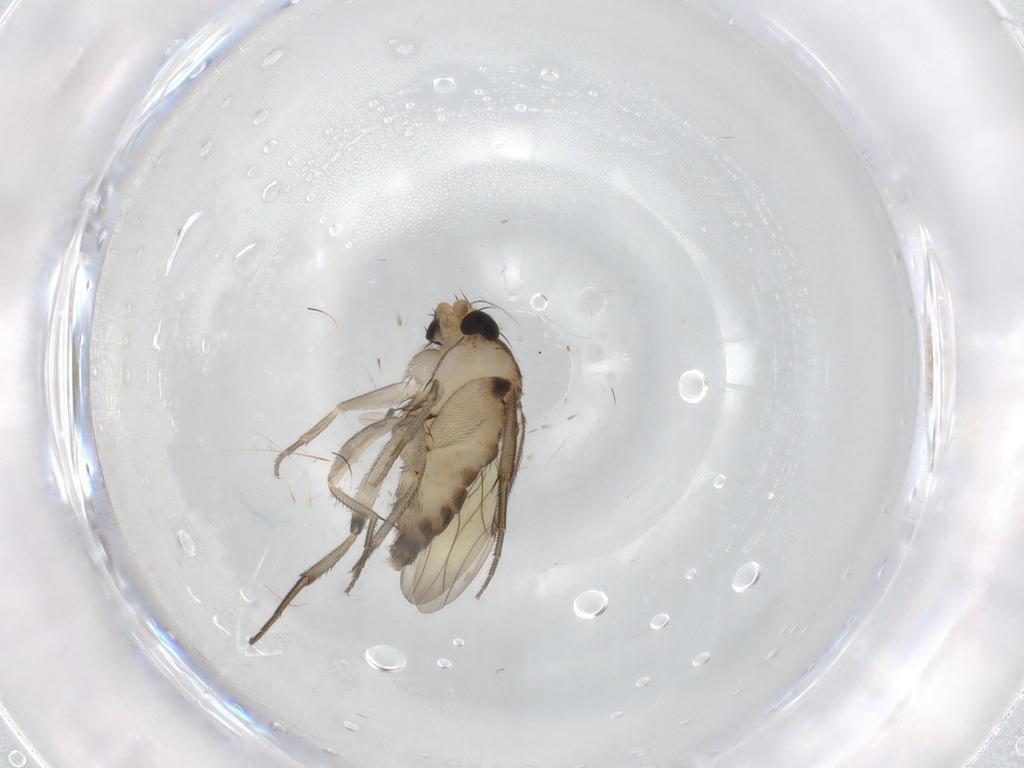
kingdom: Animalia
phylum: Arthropoda
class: Insecta
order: Diptera
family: Phoridae
